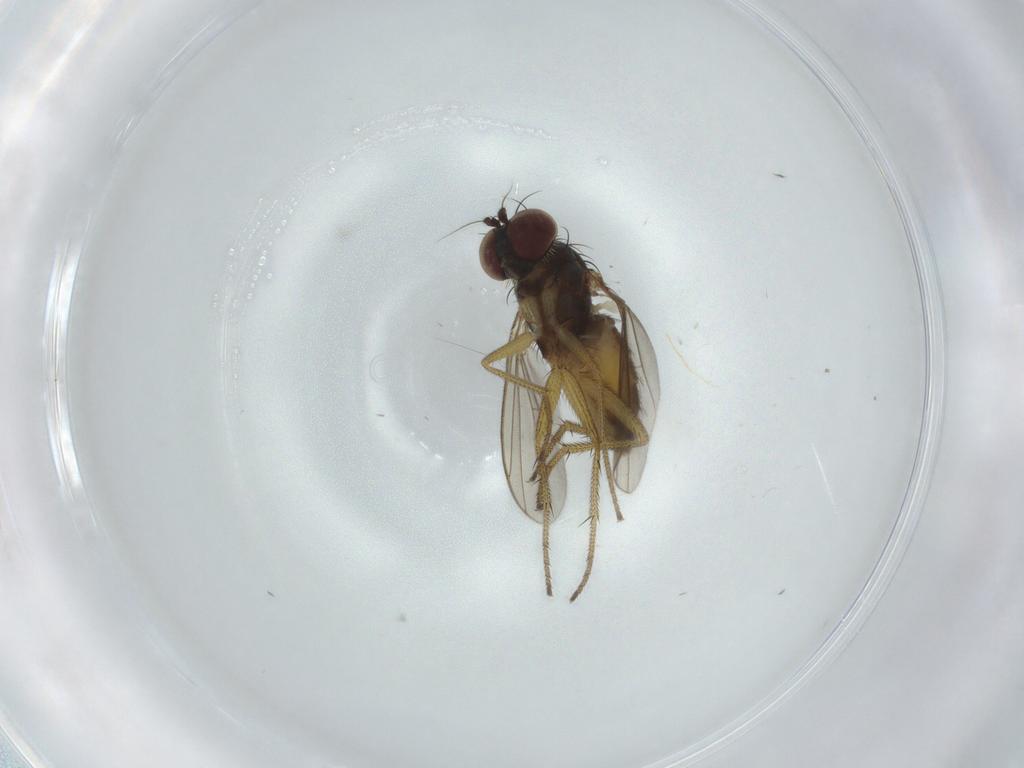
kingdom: Animalia
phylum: Arthropoda
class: Insecta
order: Diptera
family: Dolichopodidae
